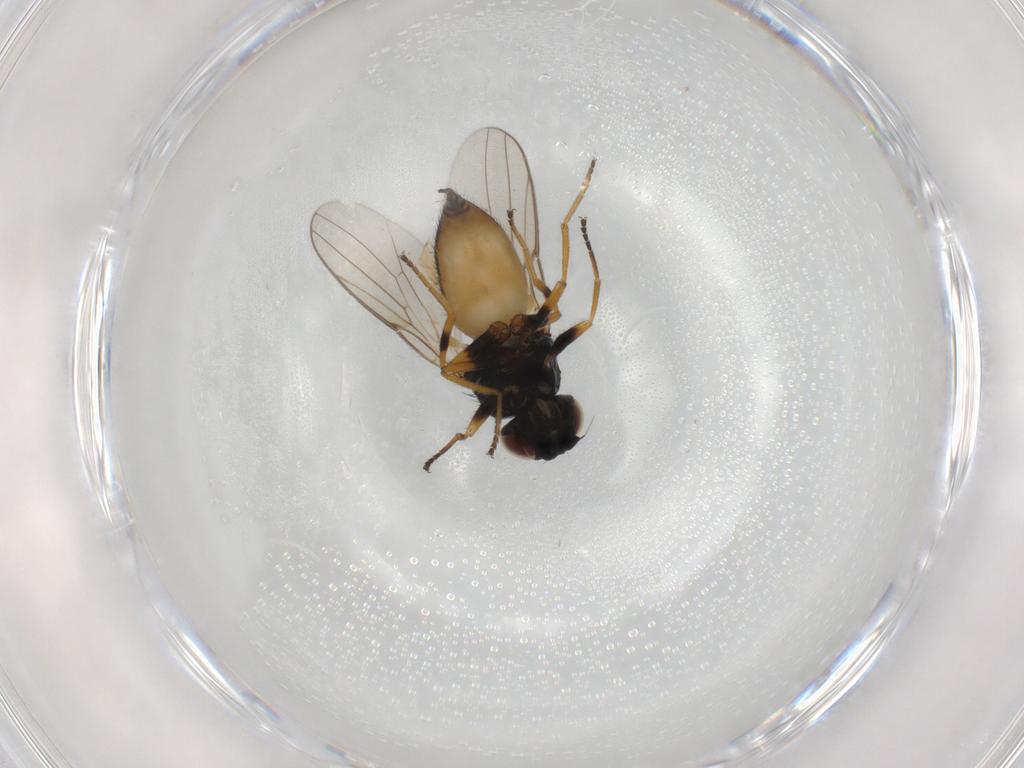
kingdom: Animalia
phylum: Arthropoda
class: Insecta
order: Diptera
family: Chloropidae
